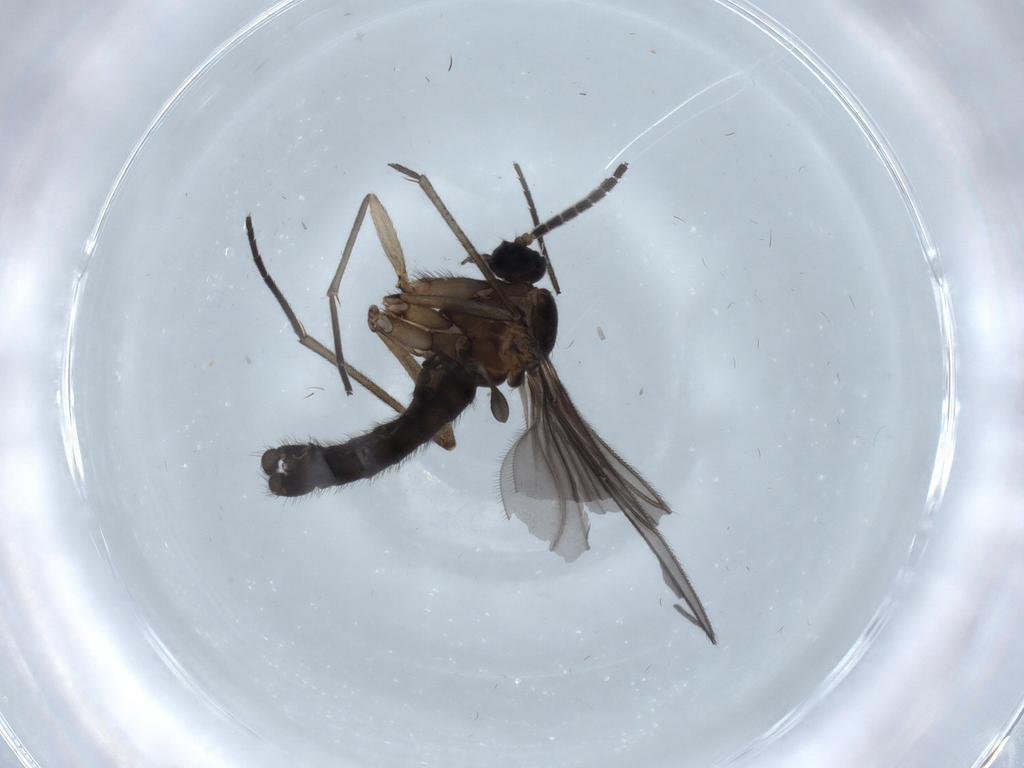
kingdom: Animalia
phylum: Arthropoda
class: Insecta
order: Diptera
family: Sciaridae
